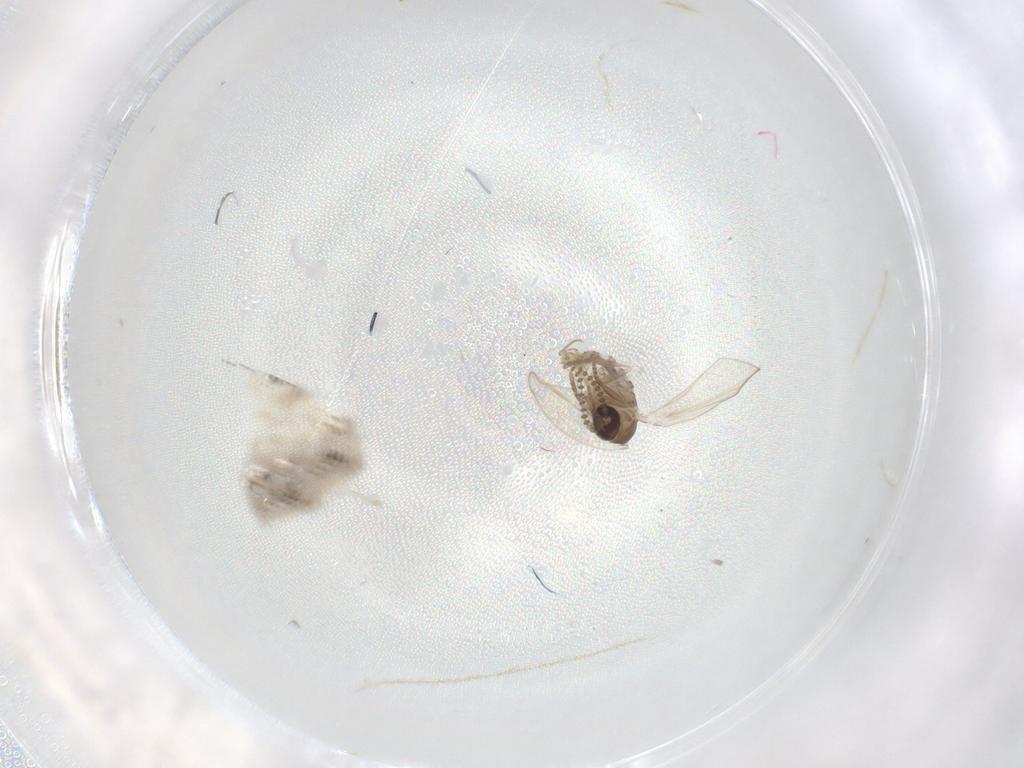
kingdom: Animalia
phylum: Arthropoda
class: Insecta
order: Diptera
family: Psychodidae
